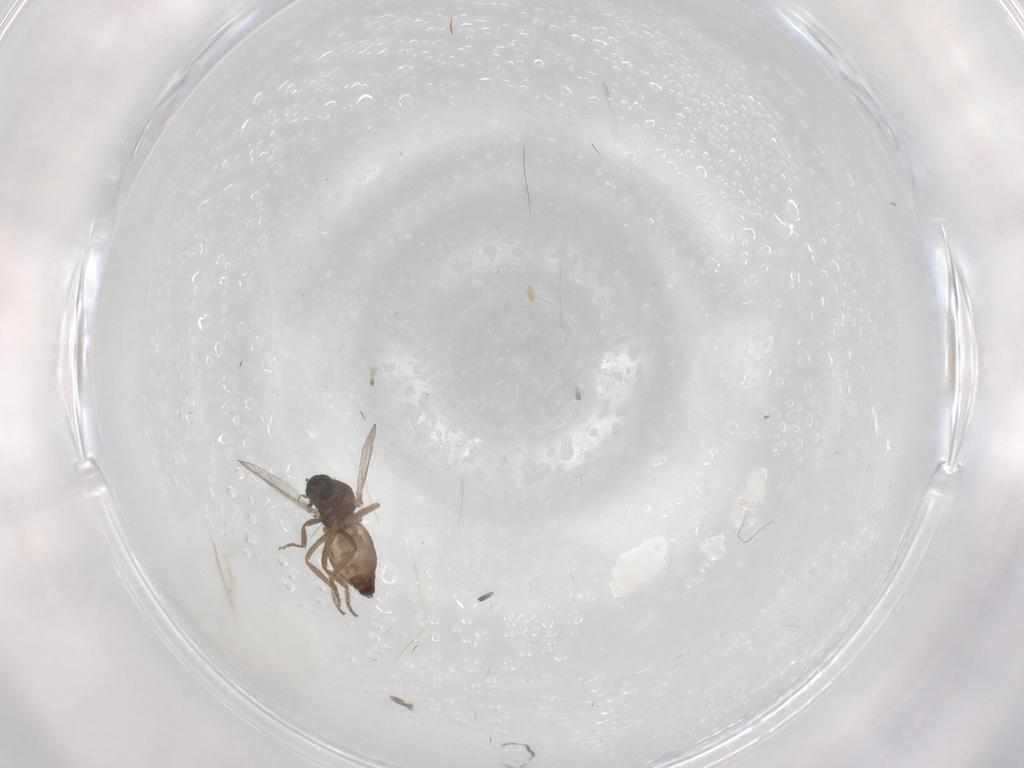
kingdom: Animalia
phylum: Arthropoda
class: Insecta
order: Diptera
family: Ceratopogonidae
